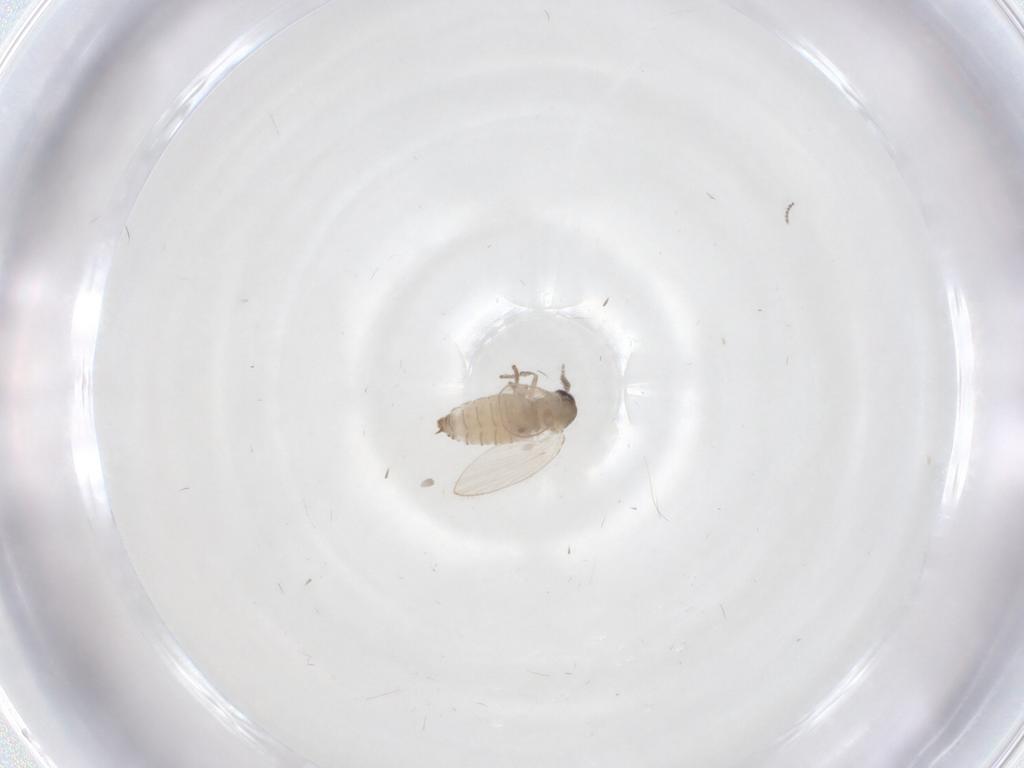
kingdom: Animalia
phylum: Arthropoda
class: Insecta
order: Diptera
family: Cecidomyiidae
